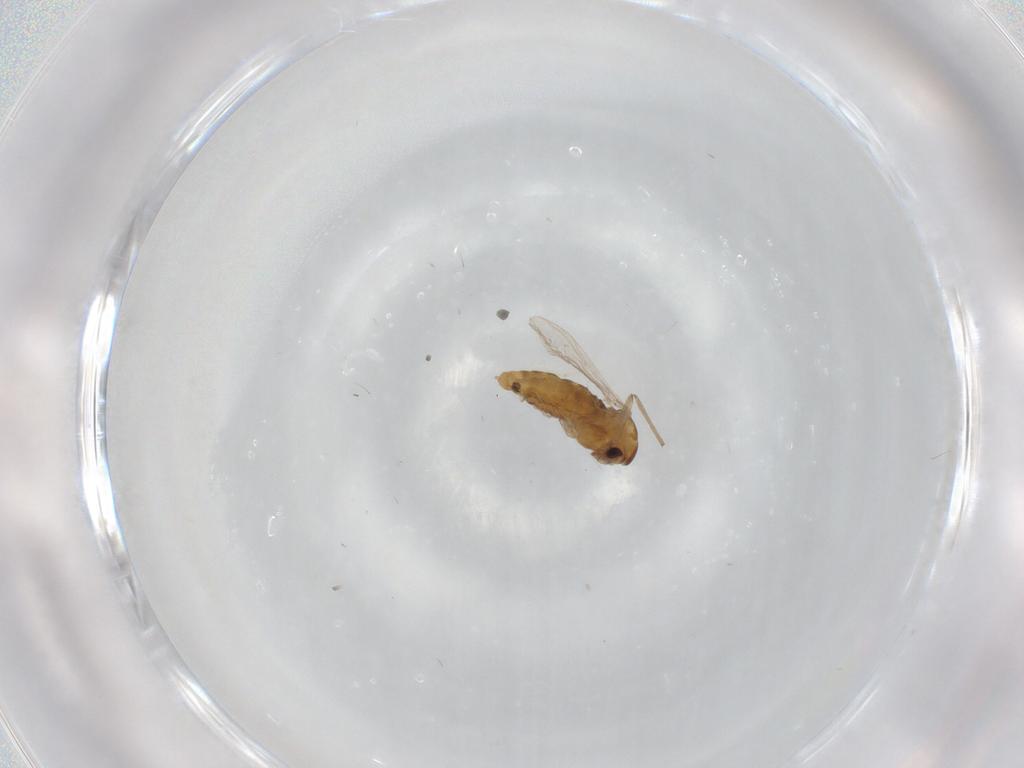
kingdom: Animalia
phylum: Arthropoda
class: Insecta
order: Diptera
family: Chironomidae
